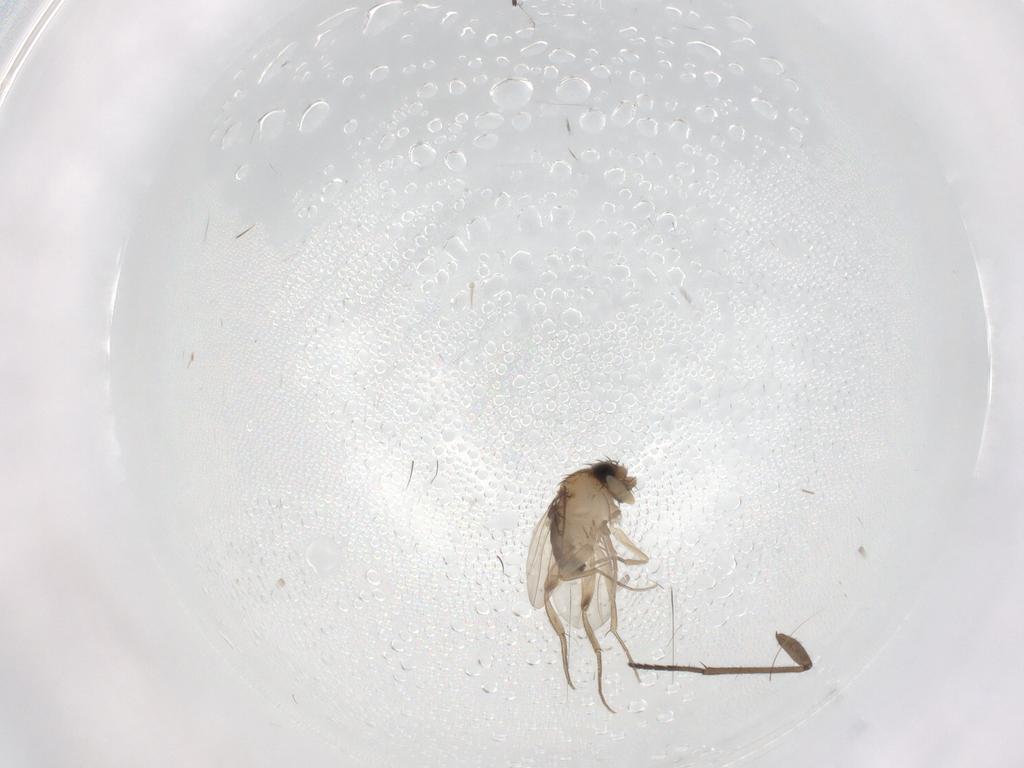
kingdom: Animalia
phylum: Arthropoda
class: Insecta
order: Diptera
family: Phoridae
